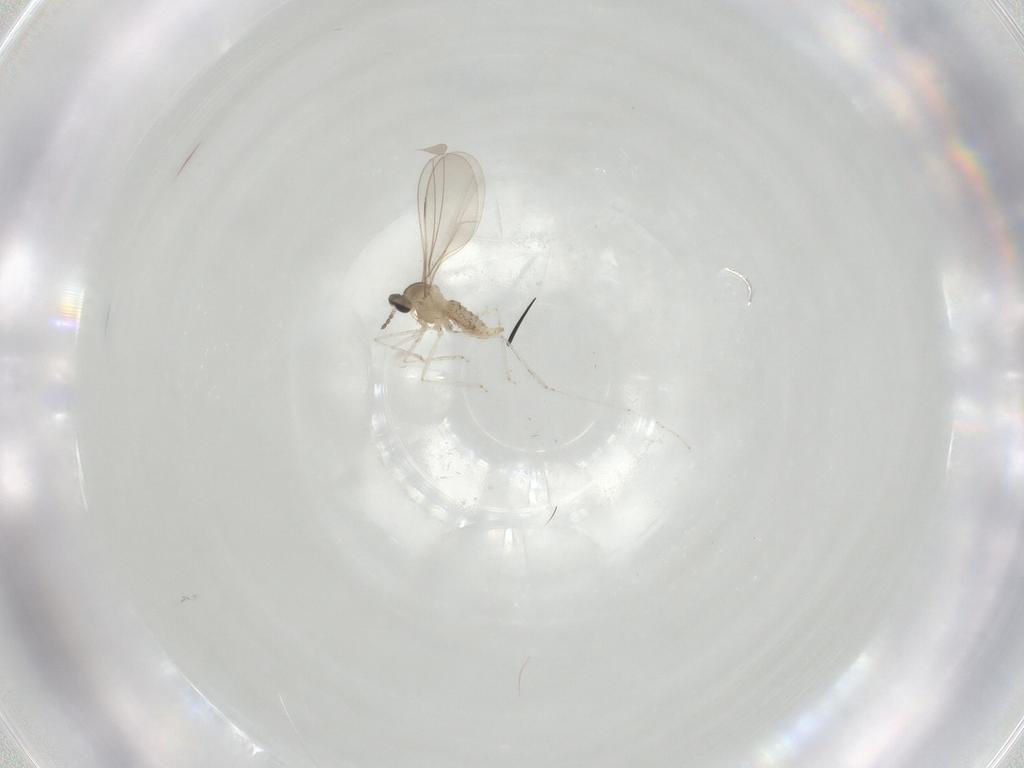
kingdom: Animalia
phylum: Arthropoda
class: Insecta
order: Diptera
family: Cecidomyiidae
